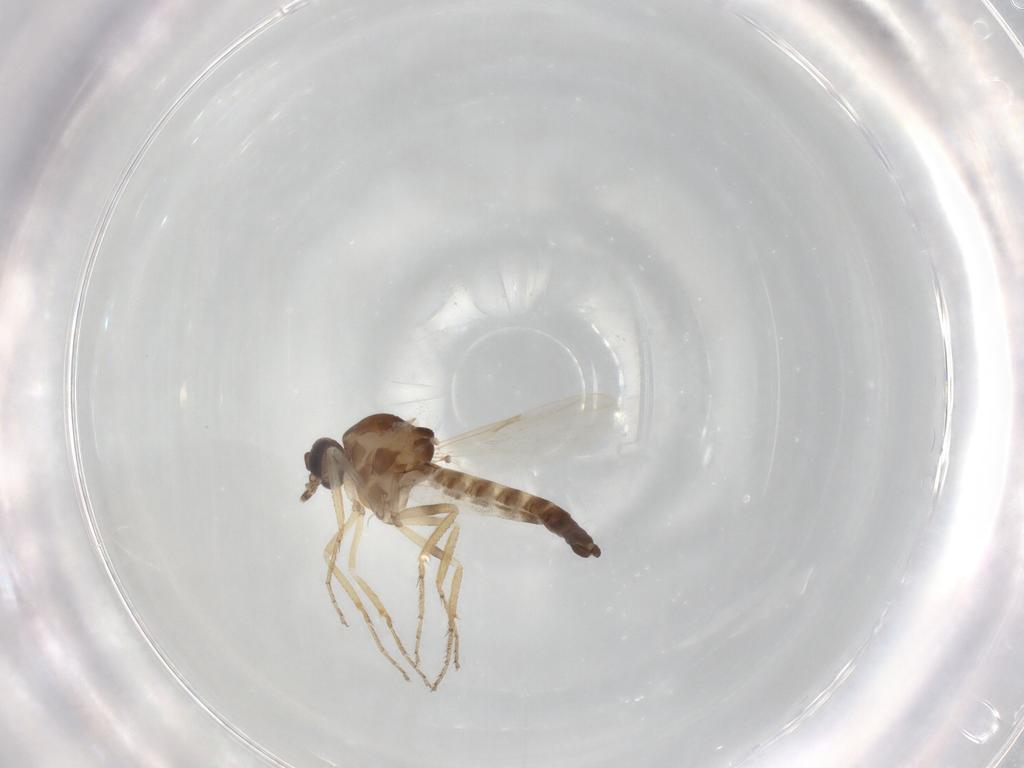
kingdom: Animalia
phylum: Arthropoda
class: Insecta
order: Diptera
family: Ceratopogonidae
